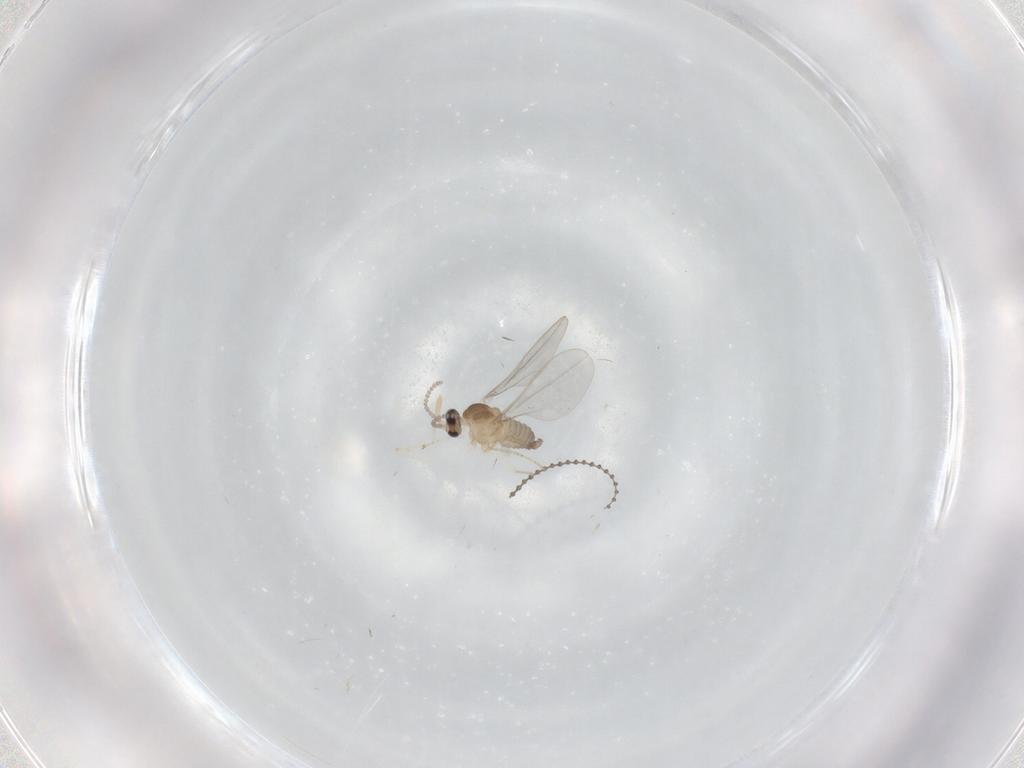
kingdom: Animalia
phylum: Arthropoda
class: Insecta
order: Diptera
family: Cecidomyiidae
